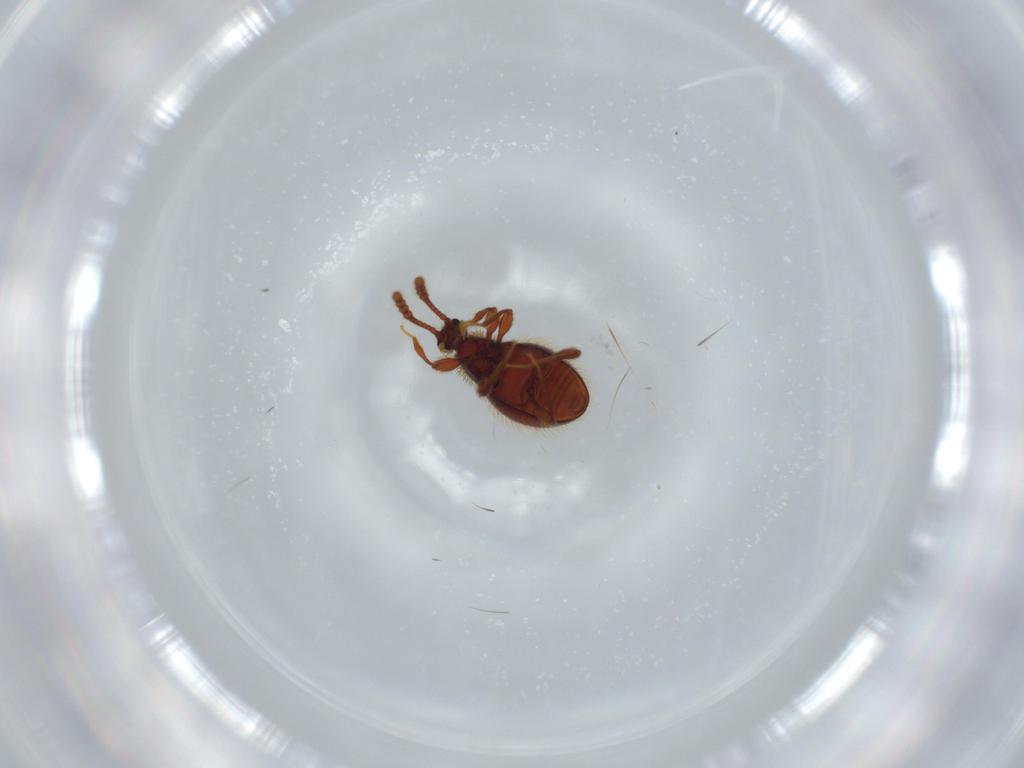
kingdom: Animalia
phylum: Arthropoda
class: Insecta
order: Coleoptera
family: Staphylinidae
